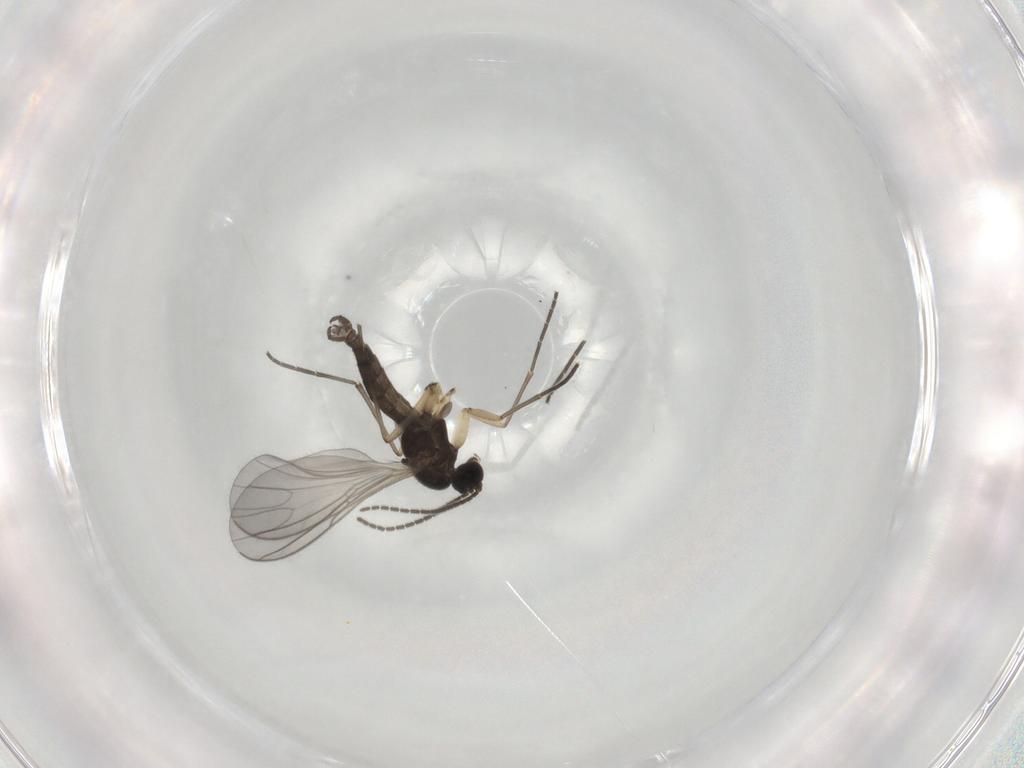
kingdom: Animalia
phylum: Arthropoda
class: Insecta
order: Diptera
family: Sciaridae
